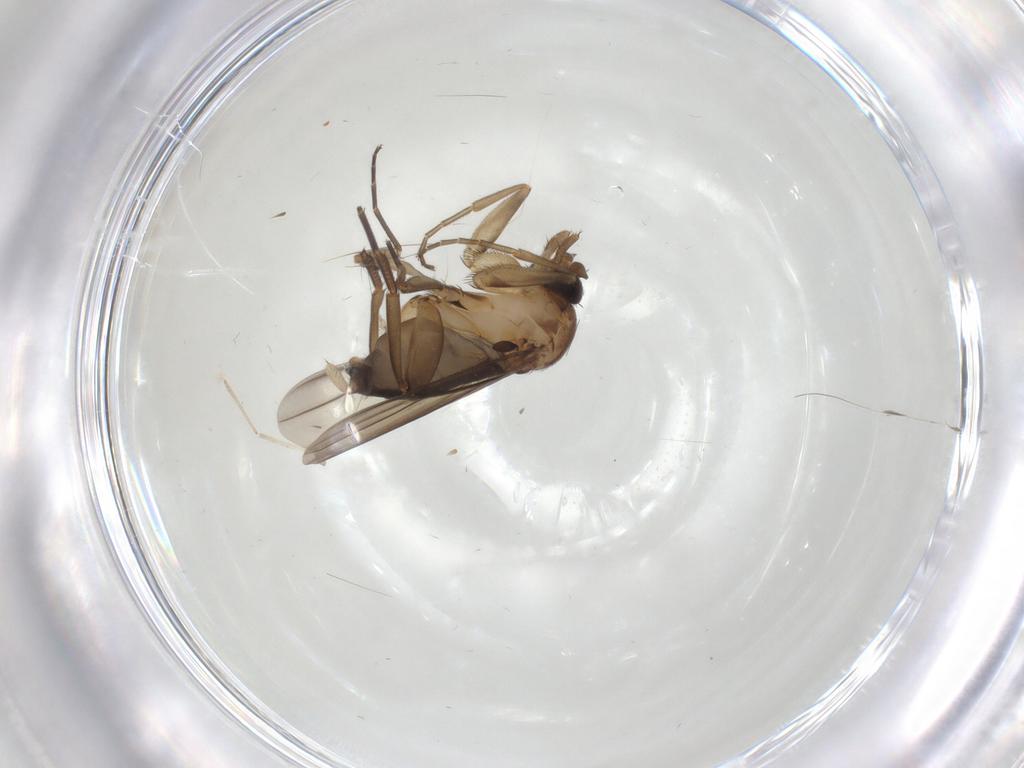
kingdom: Animalia
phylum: Arthropoda
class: Insecta
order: Diptera
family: Phoridae
